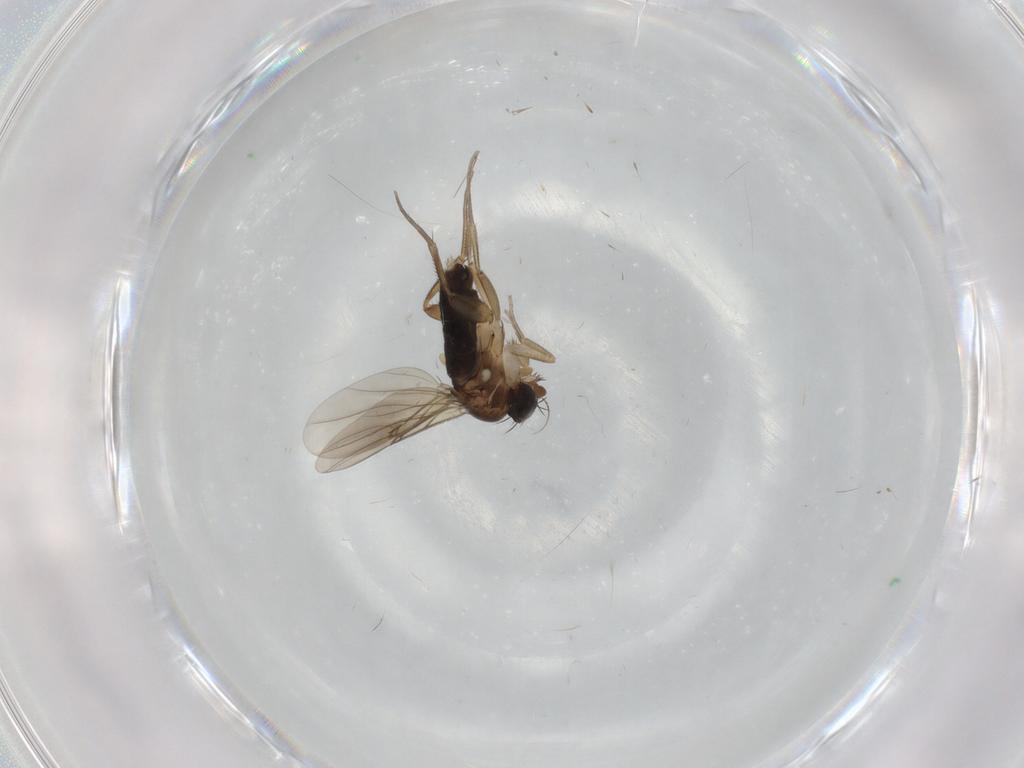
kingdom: Animalia
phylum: Arthropoda
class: Insecta
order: Diptera
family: Phoridae
